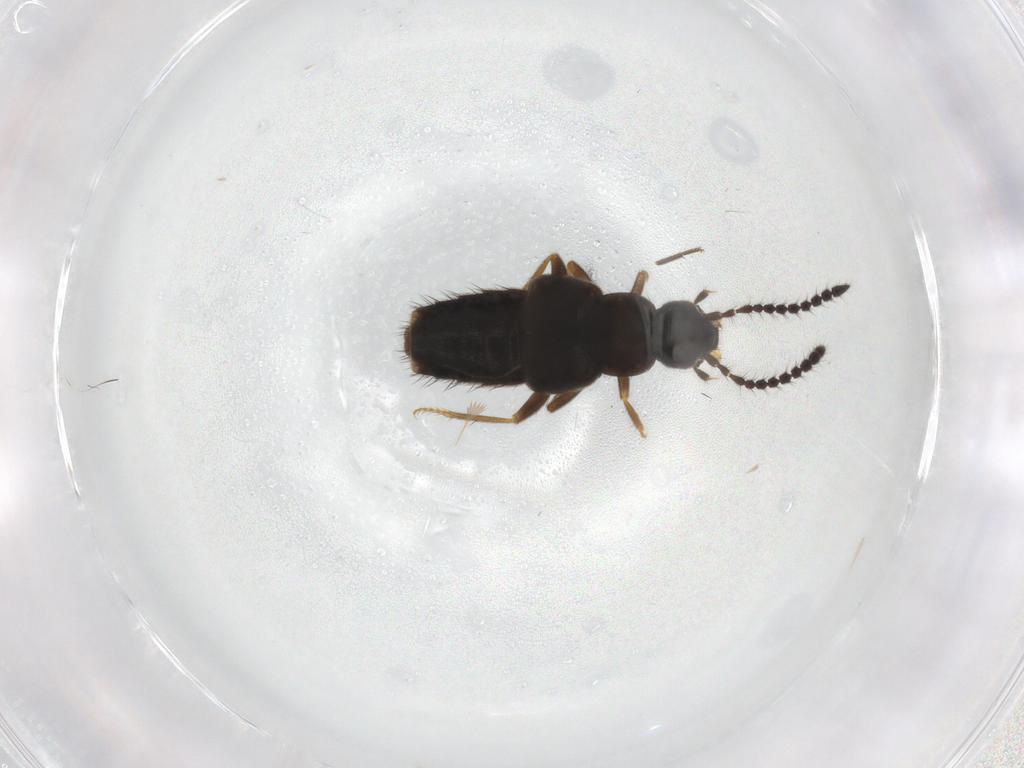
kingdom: Animalia
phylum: Arthropoda
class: Insecta
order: Coleoptera
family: Staphylinidae
